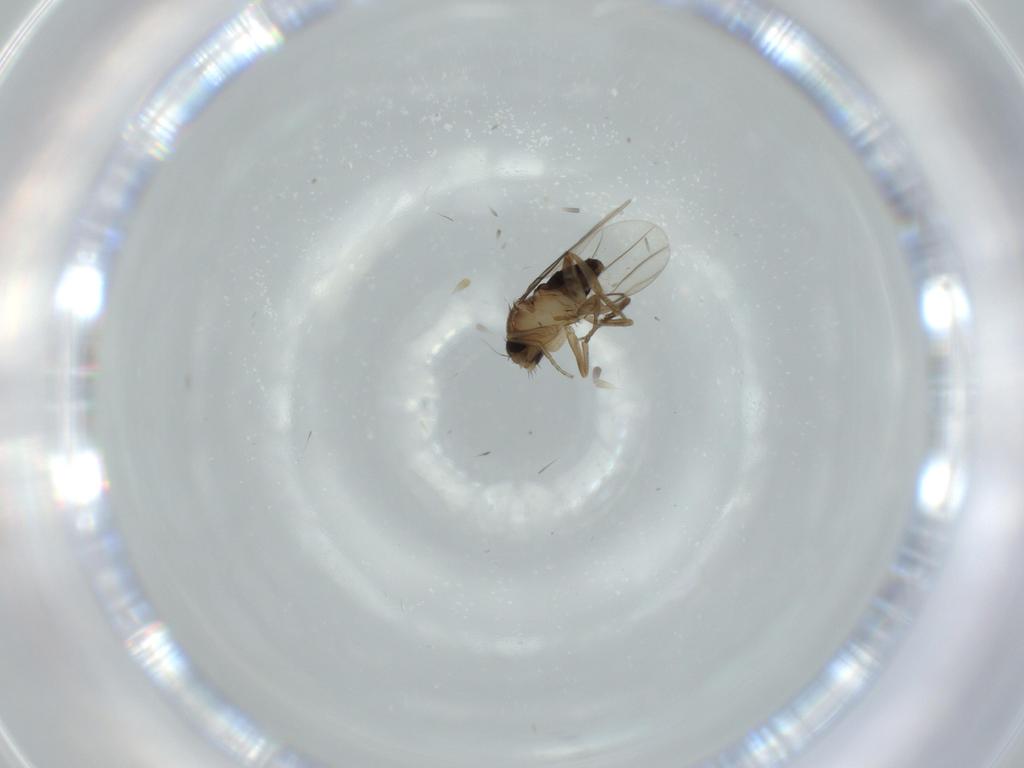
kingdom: Animalia
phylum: Arthropoda
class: Insecta
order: Diptera
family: Phoridae
